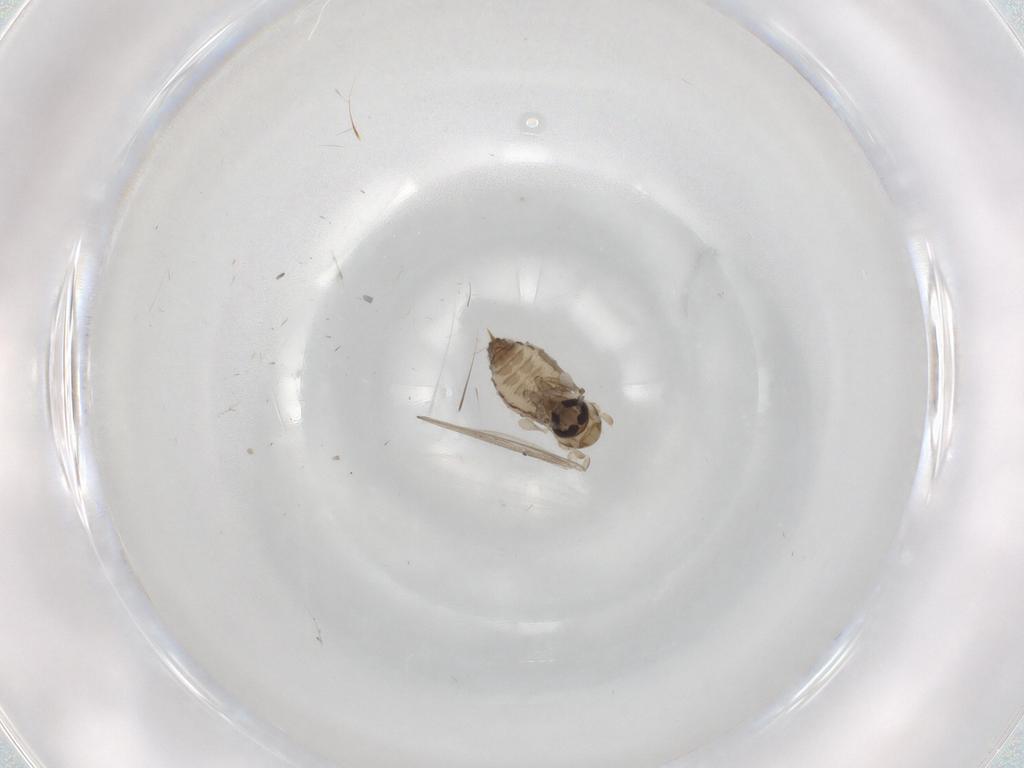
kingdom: Animalia
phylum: Arthropoda
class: Insecta
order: Diptera
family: Psychodidae
